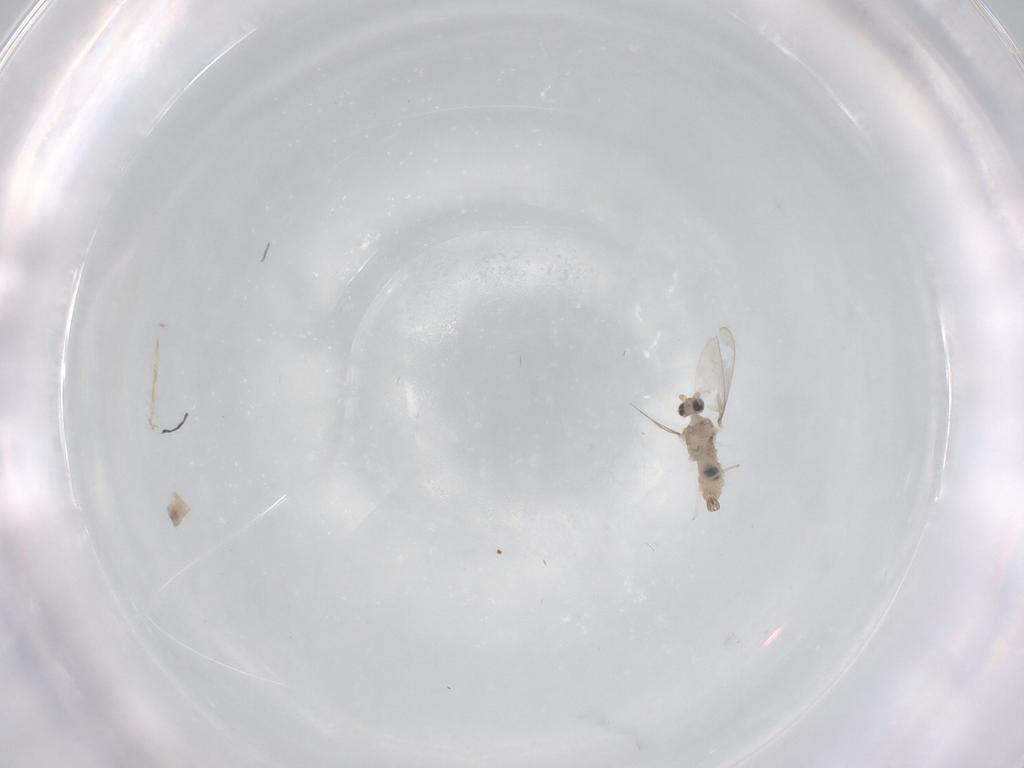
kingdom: Animalia
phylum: Arthropoda
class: Insecta
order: Diptera
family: Cecidomyiidae
